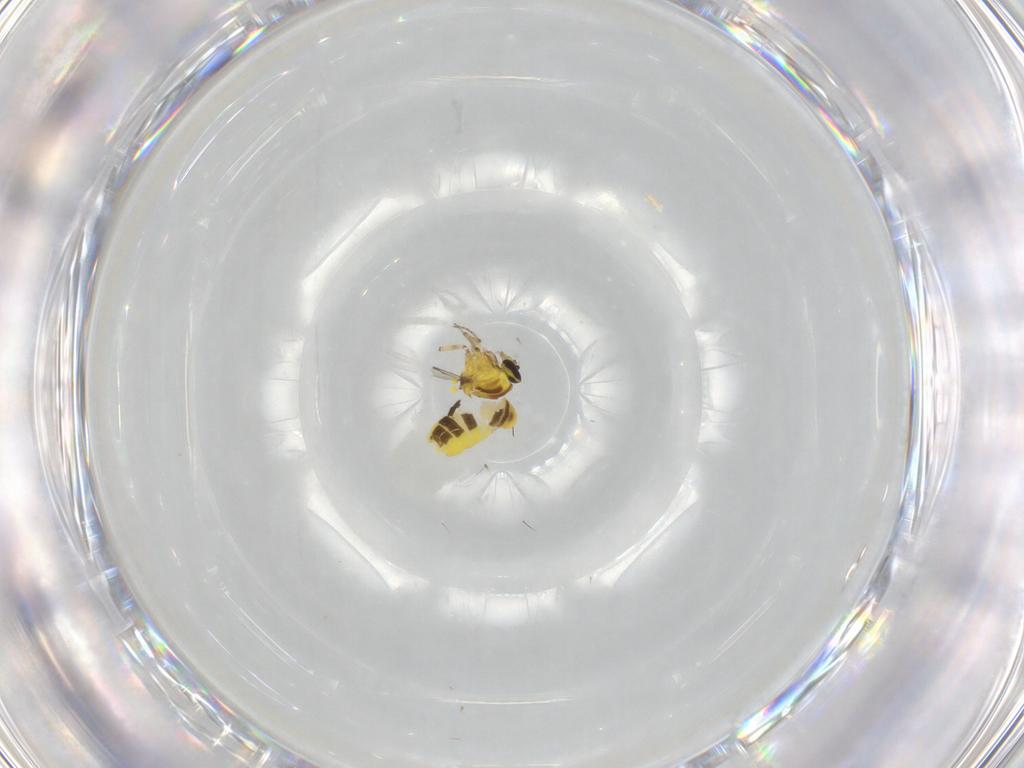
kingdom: Animalia
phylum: Arthropoda
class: Insecta
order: Diptera
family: Ceratopogonidae
